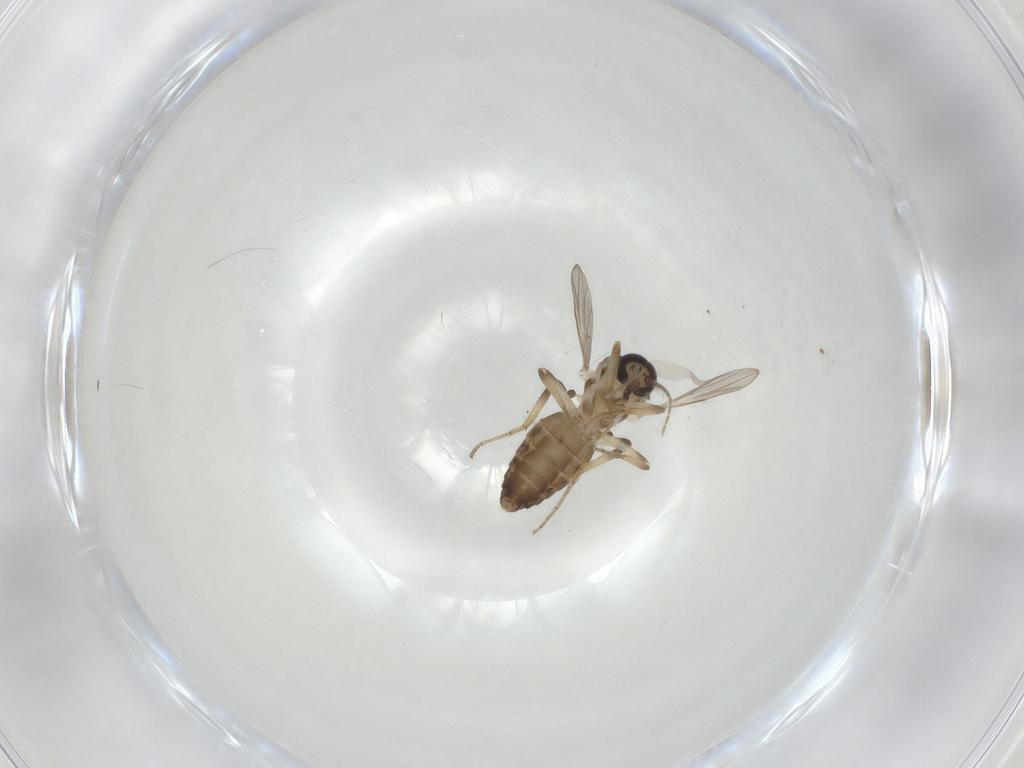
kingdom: Animalia
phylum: Arthropoda
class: Insecta
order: Diptera
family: Ceratopogonidae
